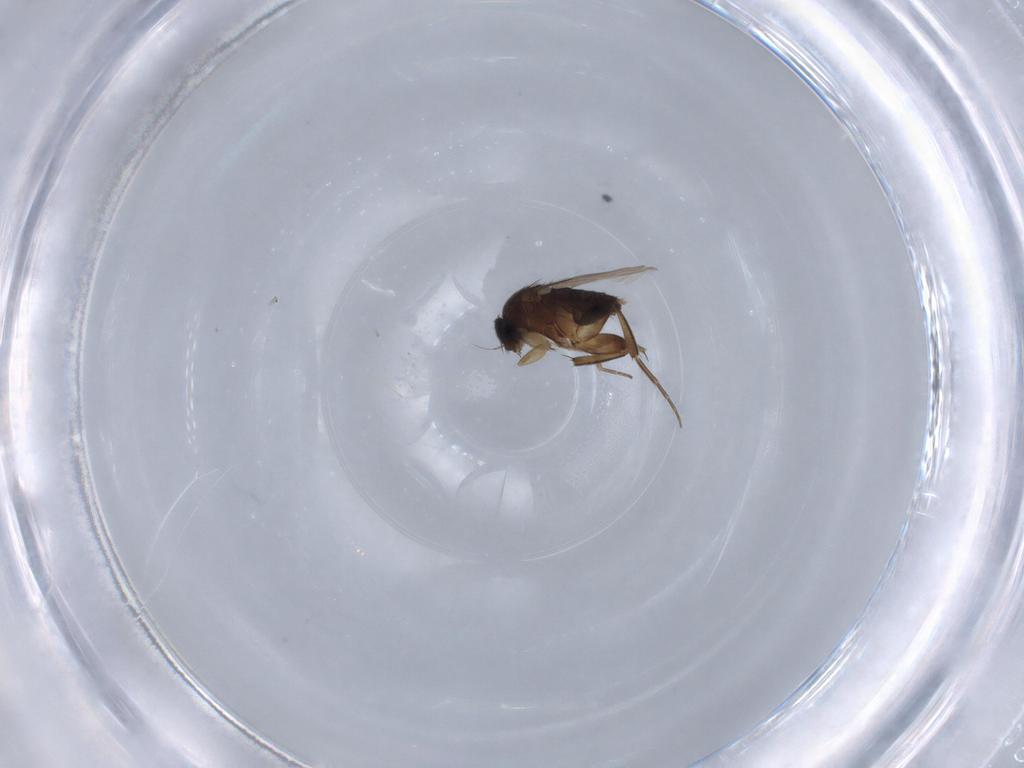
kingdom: Animalia
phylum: Arthropoda
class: Insecta
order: Diptera
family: Phoridae
